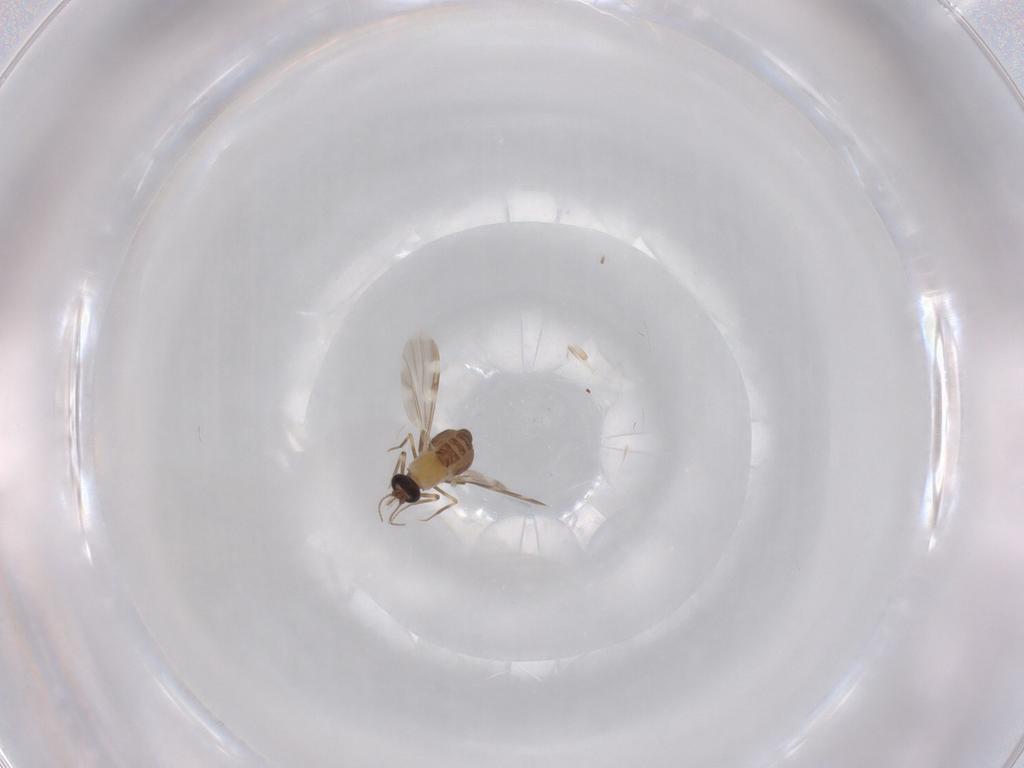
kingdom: Animalia
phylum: Arthropoda
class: Insecta
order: Diptera
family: Ceratopogonidae
